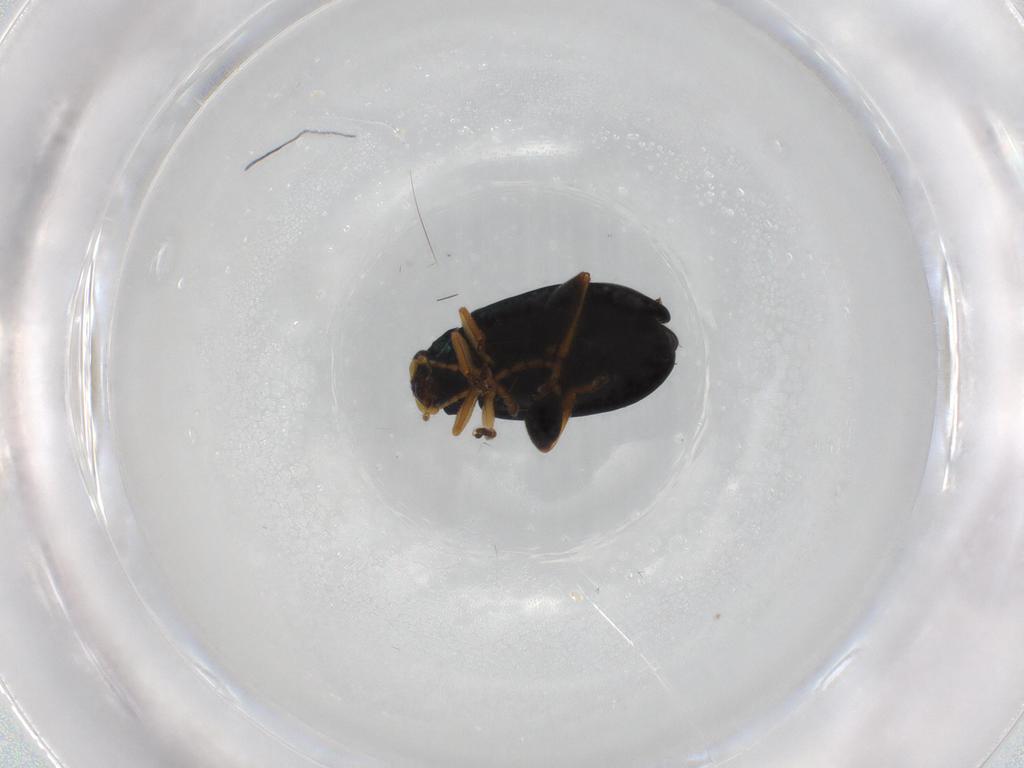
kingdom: Animalia
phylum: Arthropoda
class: Insecta
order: Coleoptera
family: Chrysomelidae
